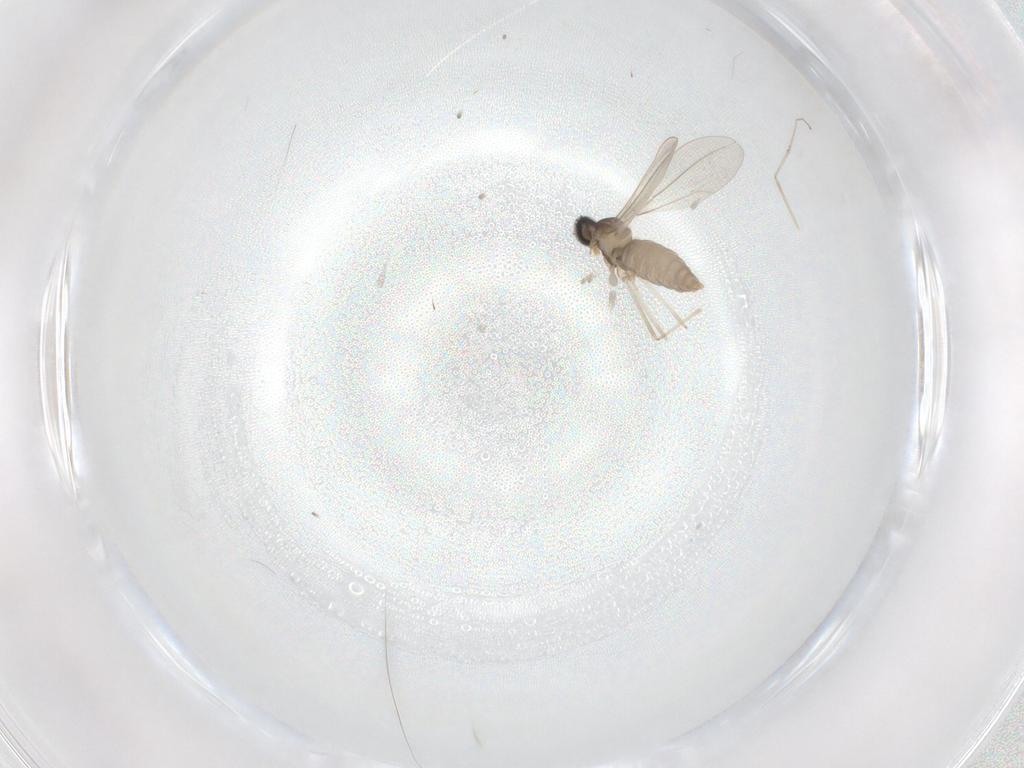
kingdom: Animalia
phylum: Arthropoda
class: Insecta
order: Diptera
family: Cecidomyiidae
